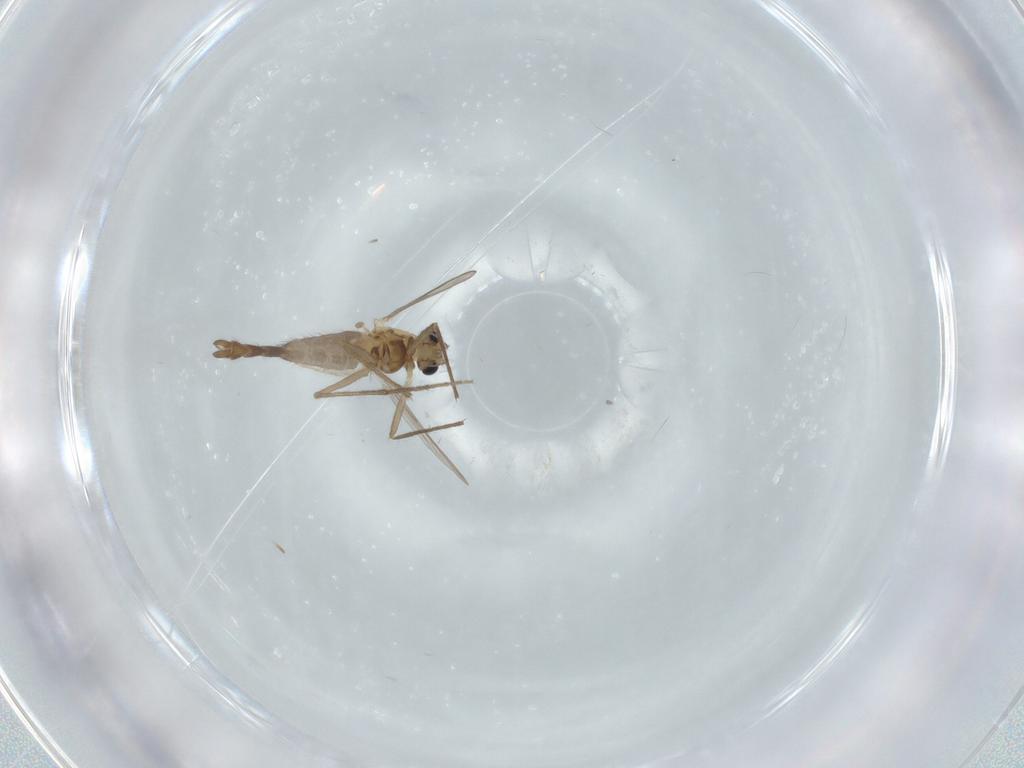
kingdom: Animalia
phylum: Arthropoda
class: Insecta
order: Diptera
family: Chironomidae
